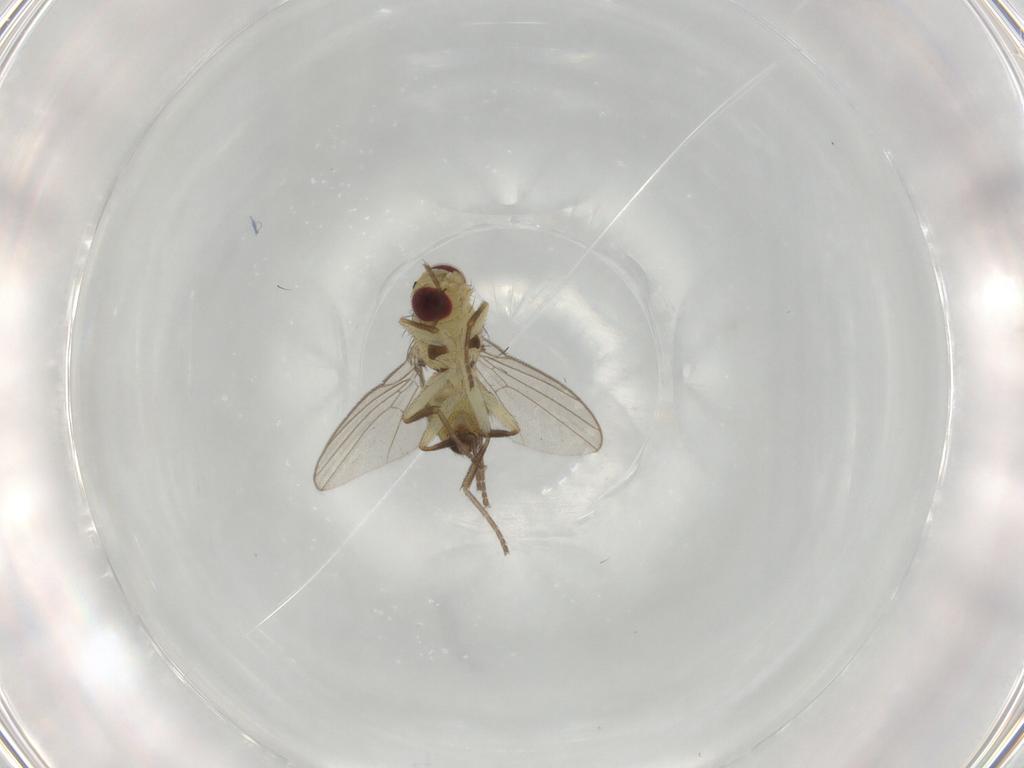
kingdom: Animalia
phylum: Arthropoda
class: Insecta
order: Diptera
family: Agromyzidae
